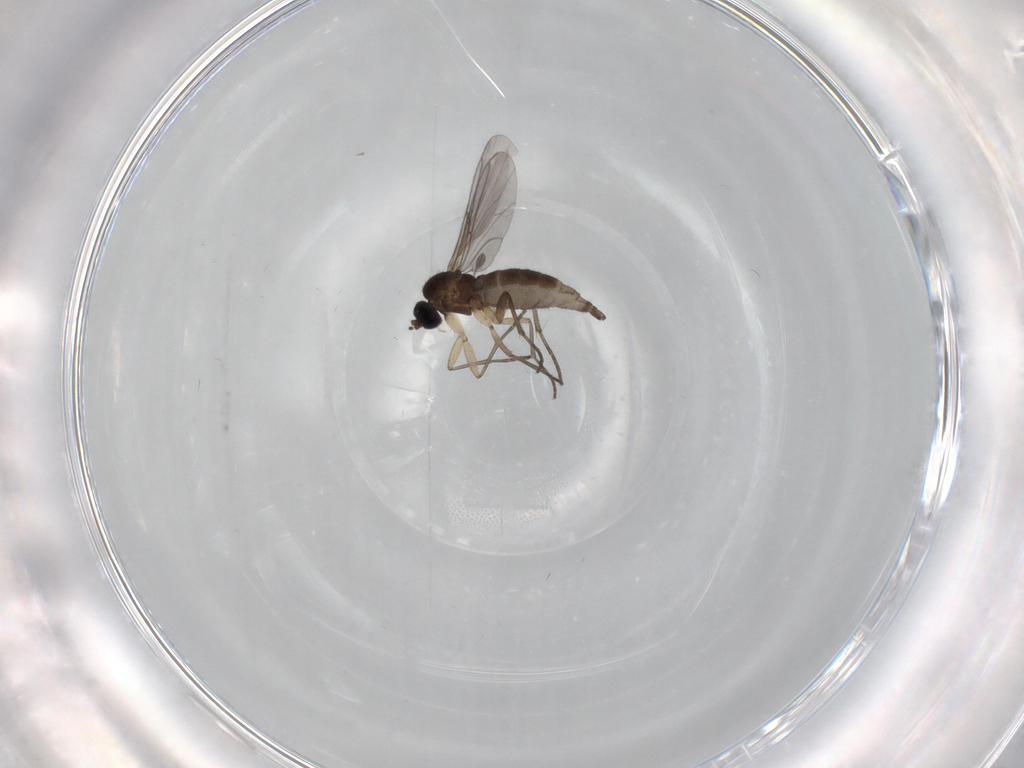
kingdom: Animalia
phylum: Arthropoda
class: Insecta
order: Diptera
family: Sciaridae
